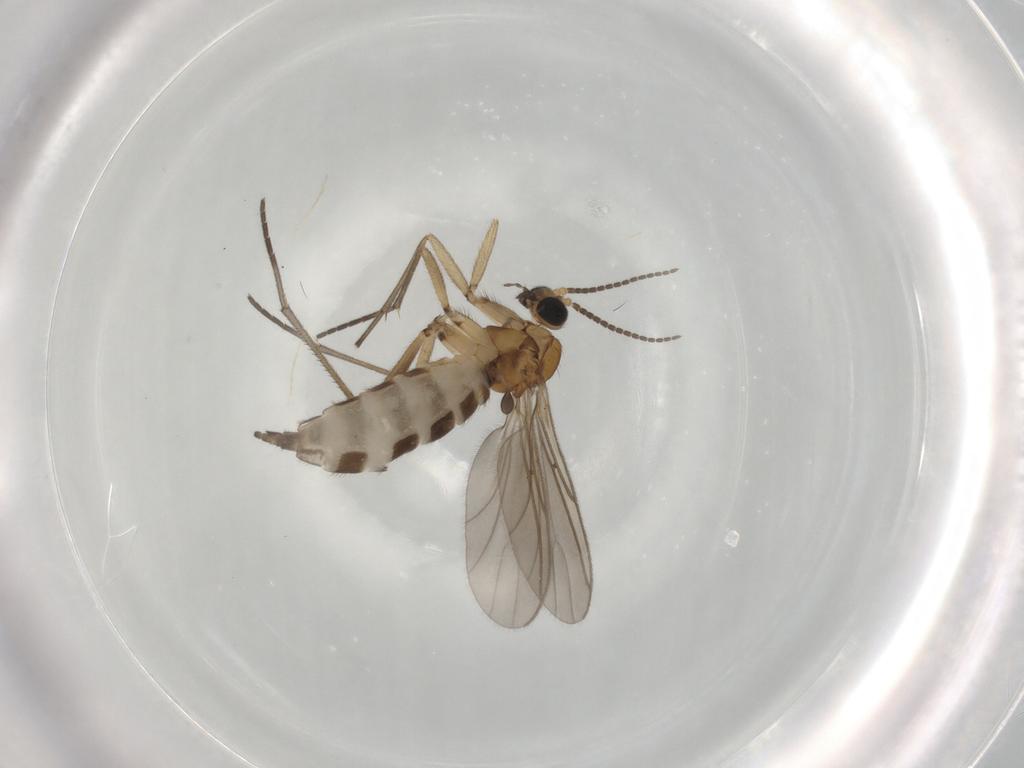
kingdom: Animalia
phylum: Arthropoda
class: Insecta
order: Diptera
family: Sciaridae
